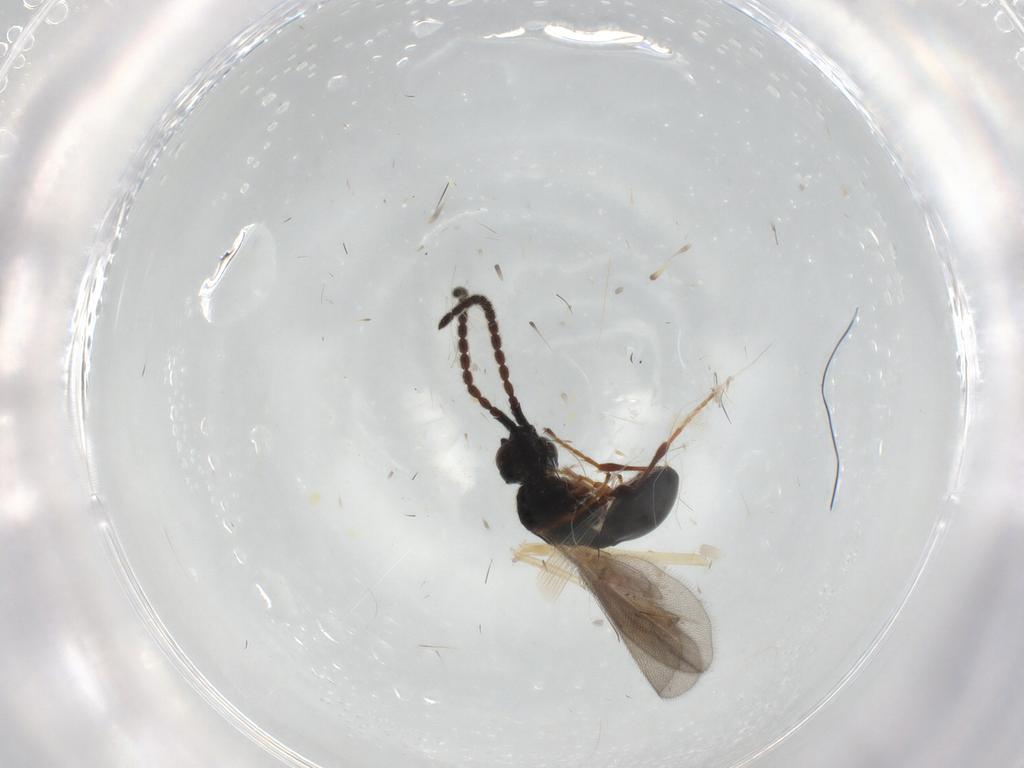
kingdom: Animalia
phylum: Arthropoda
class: Insecta
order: Hymenoptera
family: Diapriidae
